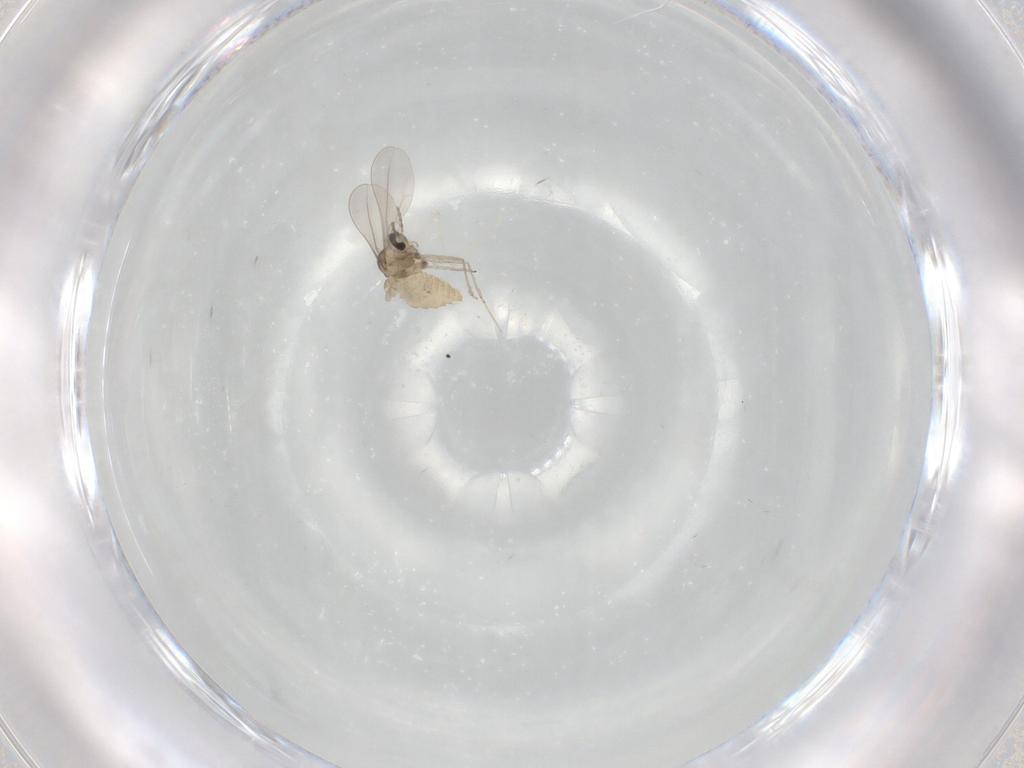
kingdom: Animalia
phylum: Arthropoda
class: Insecta
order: Diptera
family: Cecidomyiidae
